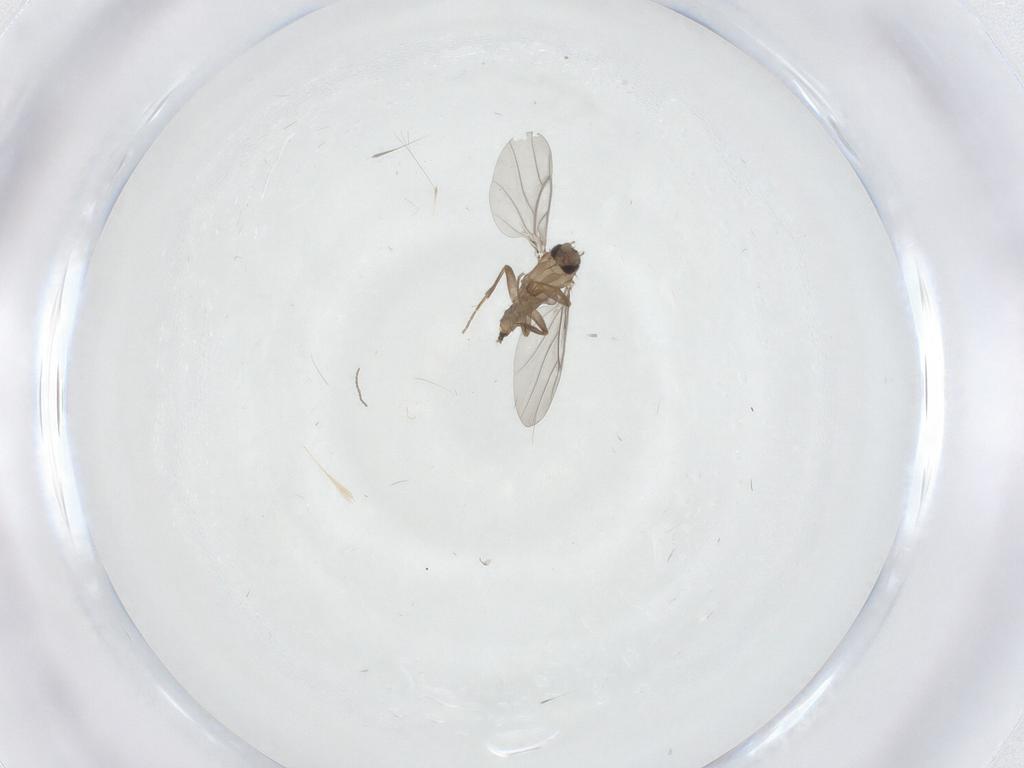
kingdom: Animalia
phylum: Arthropoda
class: Insecta
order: Diptera
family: Cecidomyiidae
